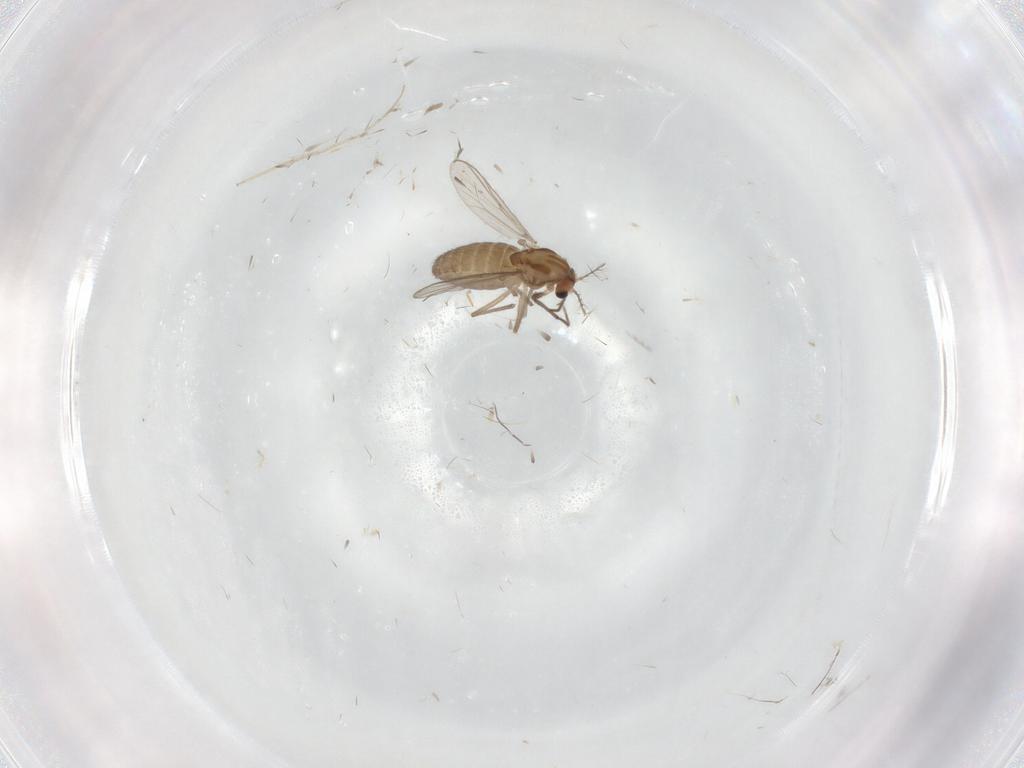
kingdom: Animalia
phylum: Arthropoda
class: Insecta
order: Diptera
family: Chironomidae
